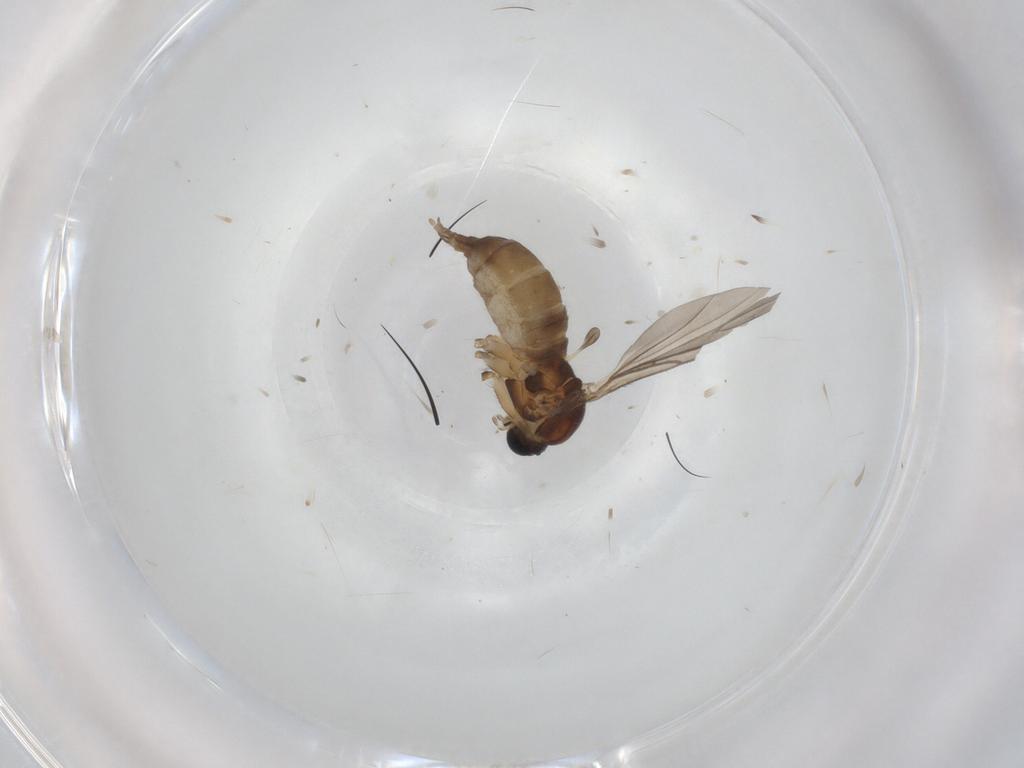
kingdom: Animalia
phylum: Arthropoda
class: Insecta
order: Diptera
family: Sciaridae
